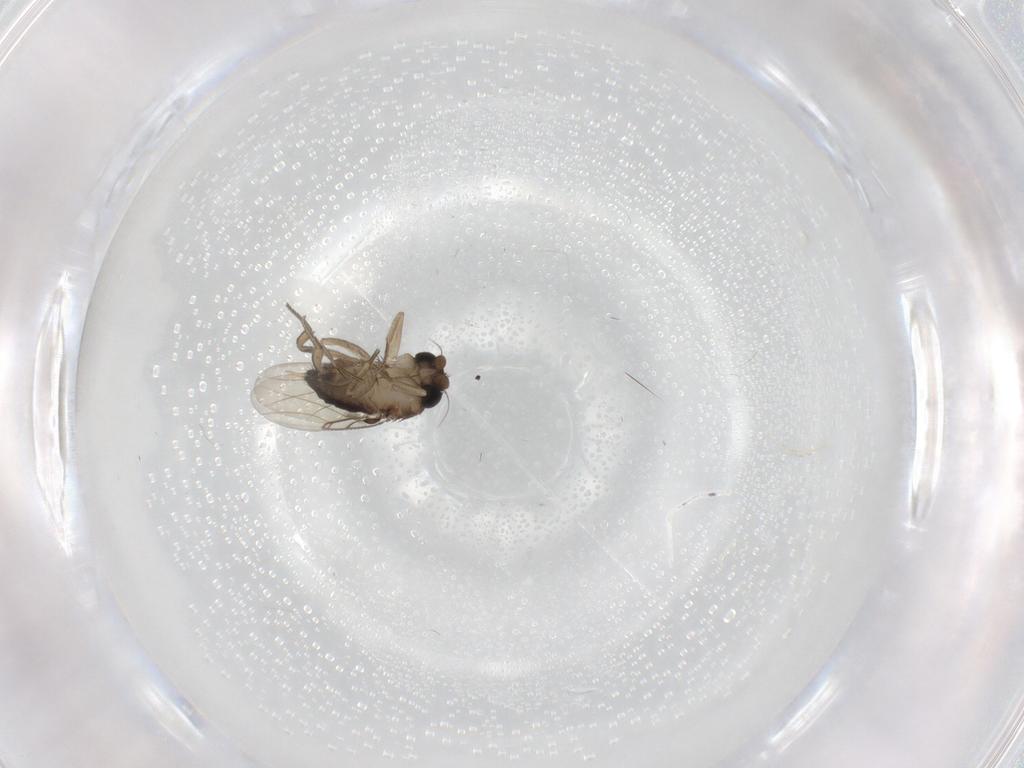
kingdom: Animalia
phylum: Arthropoda
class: Insecta
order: Diptera
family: Phoridae
